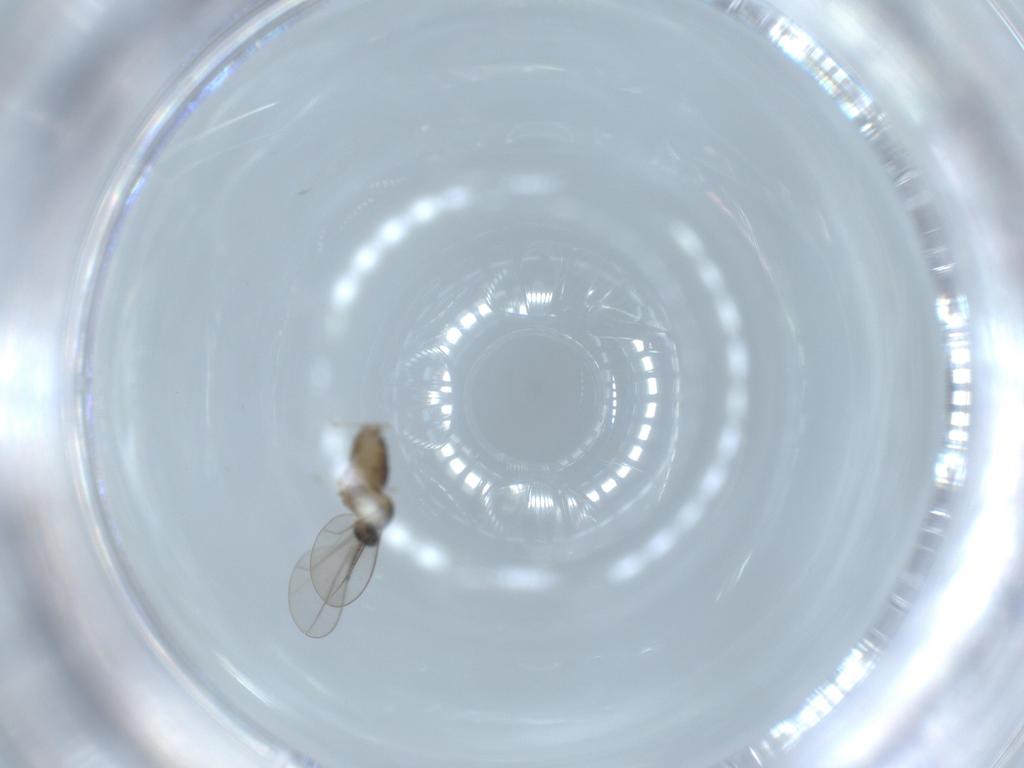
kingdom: Animalia
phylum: Arthropoda
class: Insecta
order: Diptera
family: Cecidomyiidae
